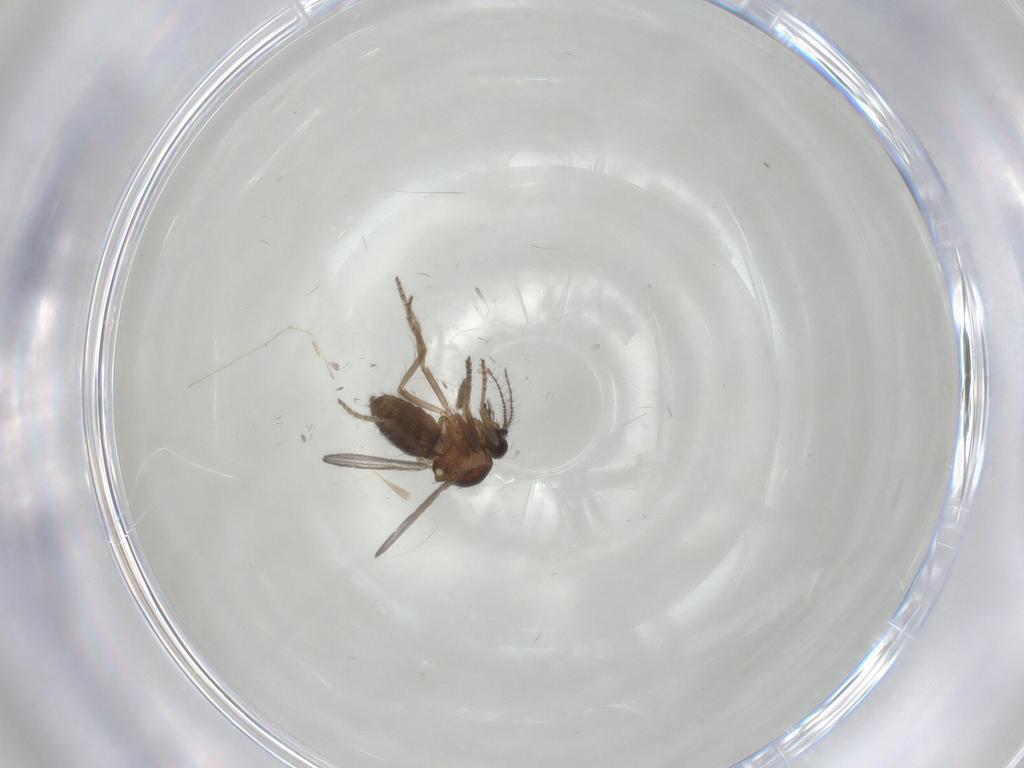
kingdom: Animalia
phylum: Arthropoda
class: Insecta
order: Diptera
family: Ceratopogonidae
